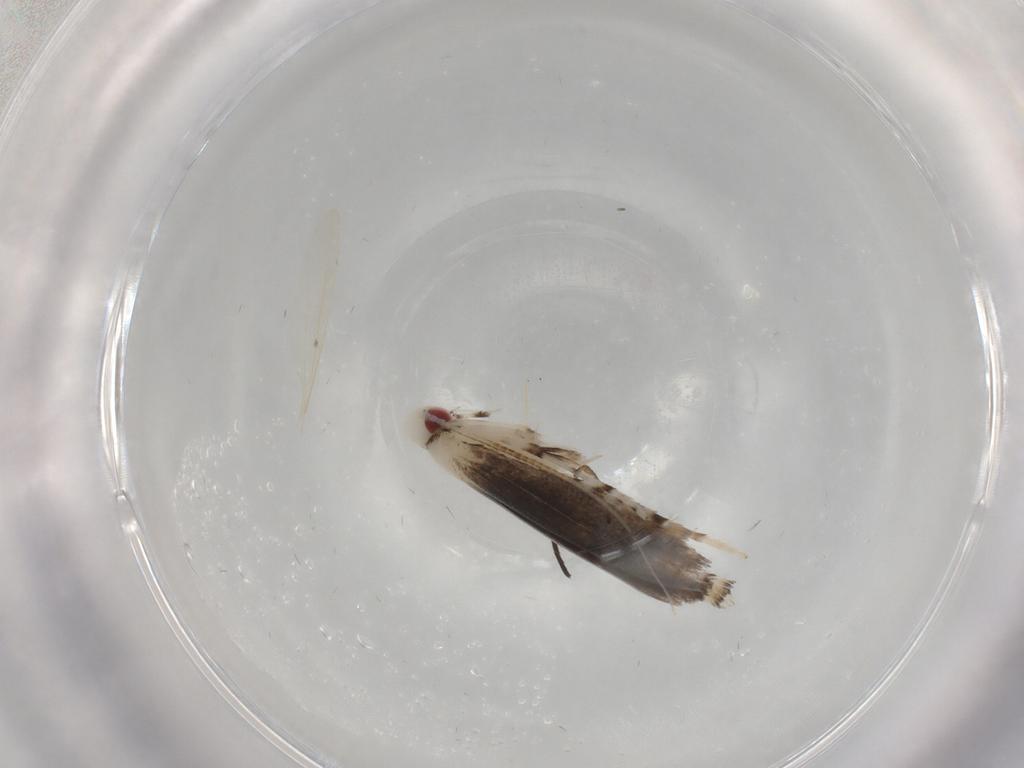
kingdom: Animalia
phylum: Arthropoda
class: Insecta
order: Lepidoptera
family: Gracillariidae
